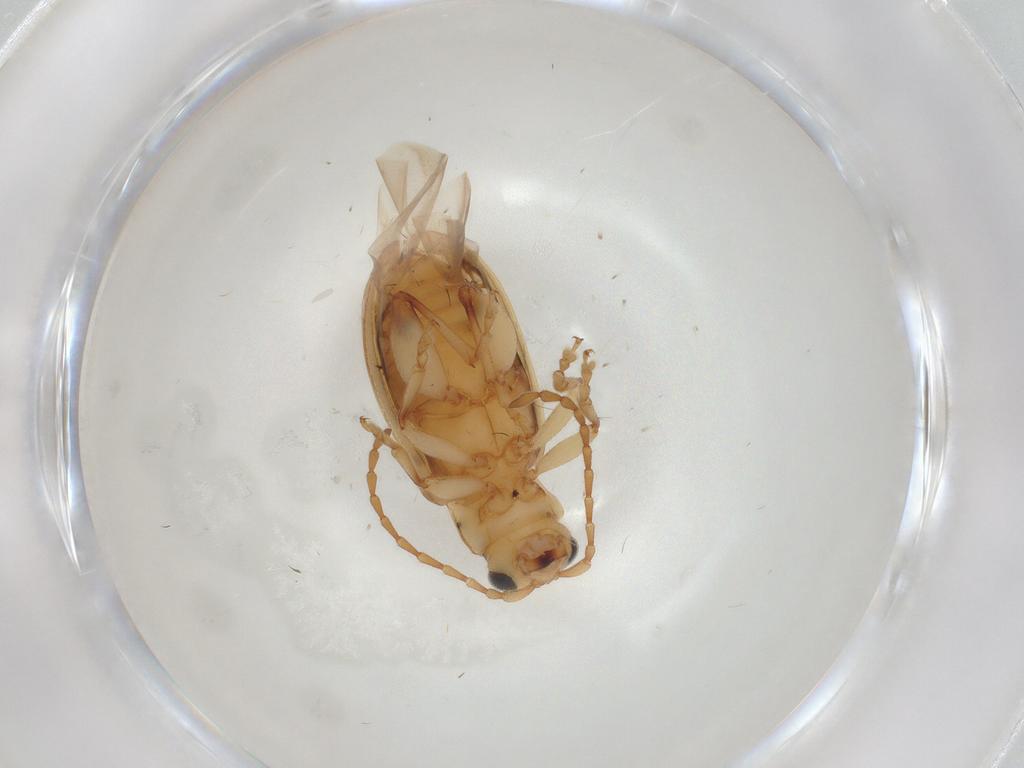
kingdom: Animalia
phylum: Arthropoda
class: Insecta
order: Coleoptera
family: Chrysomelidae
